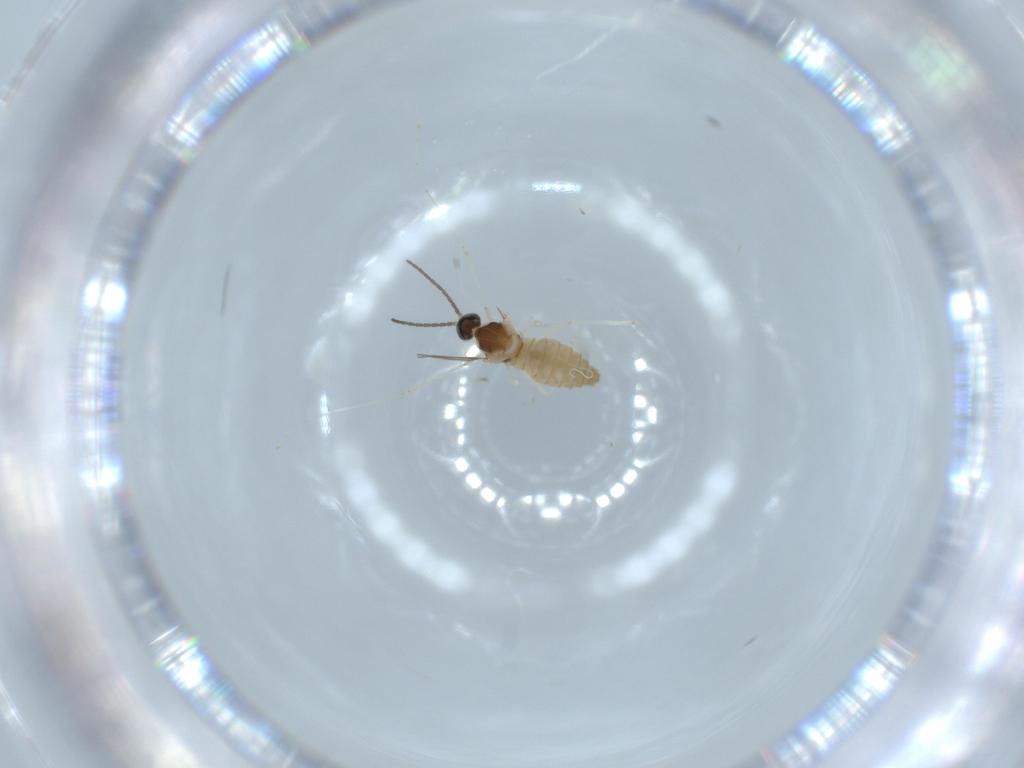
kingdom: Animalia
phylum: Arthropoda
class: Insecta
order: Diptera
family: Cecidomyiidae
